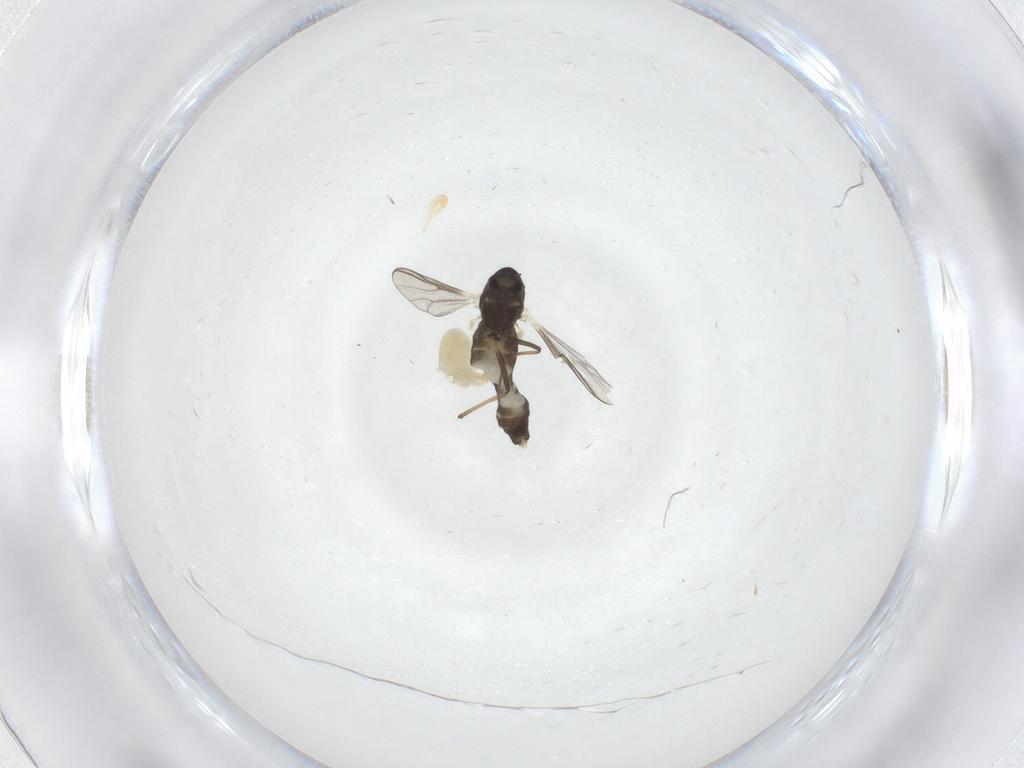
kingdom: Animalia
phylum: Arthropoda
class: Insecta
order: Diptera
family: Chironomidae
